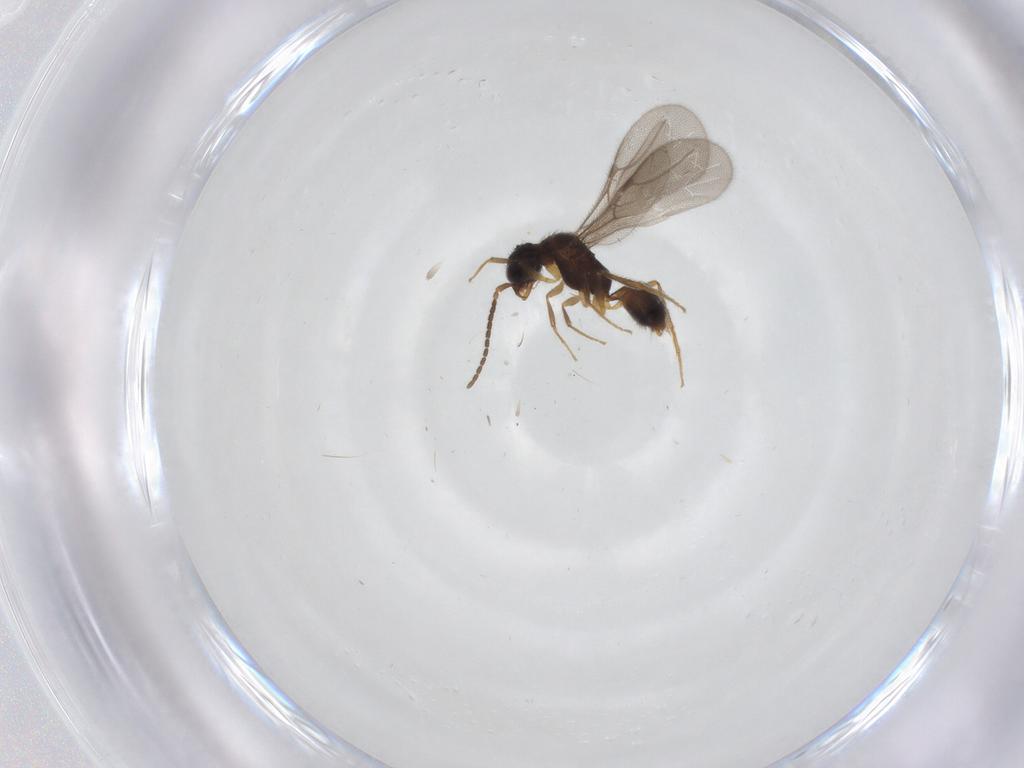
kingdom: Animalia
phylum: Arthropoda
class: Insecta
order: Hymenoptera
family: Bethylidae
